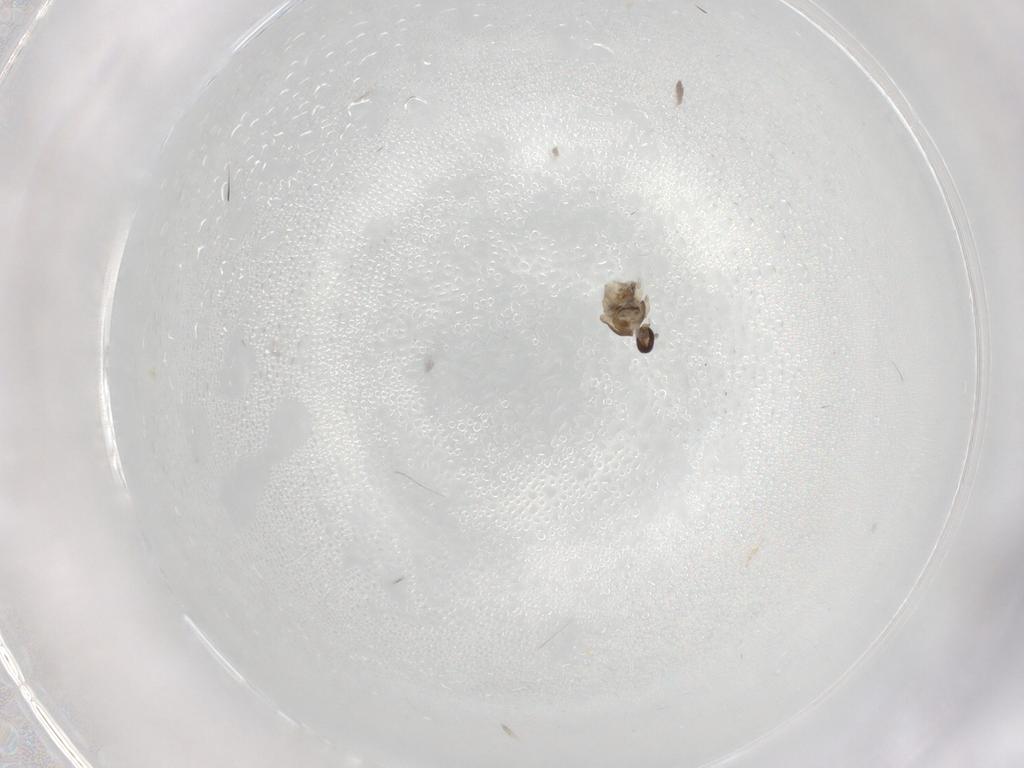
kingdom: Animalia
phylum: Arthropoda
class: Insecta
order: Diptera
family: Cecidomyiidae
